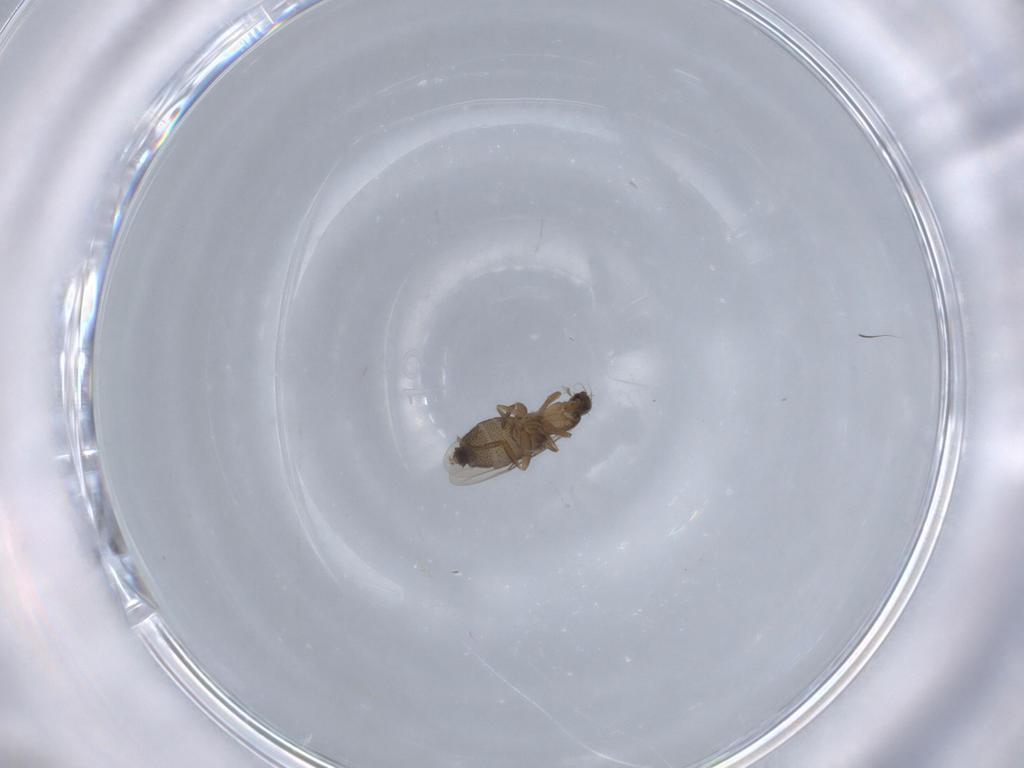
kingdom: Animalia
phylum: Arthropoda
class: Insecta
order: Diptera
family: Phoridae
